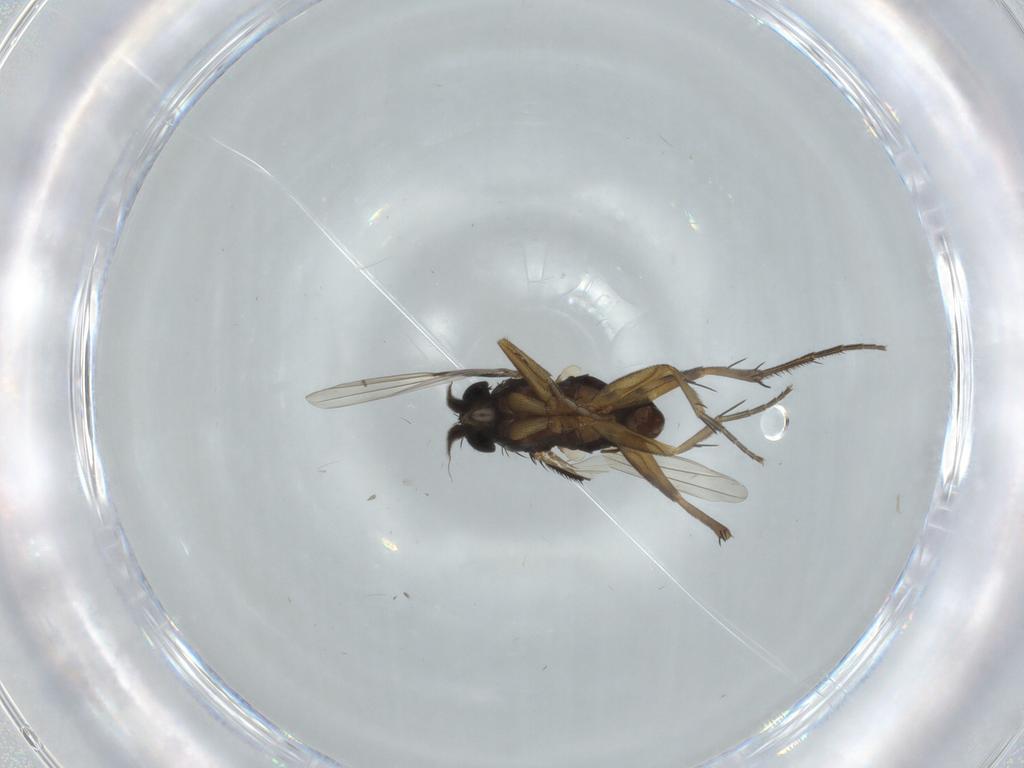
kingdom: Animalia
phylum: Arthropoda
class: Insecta
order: Diptera
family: Phoridae
